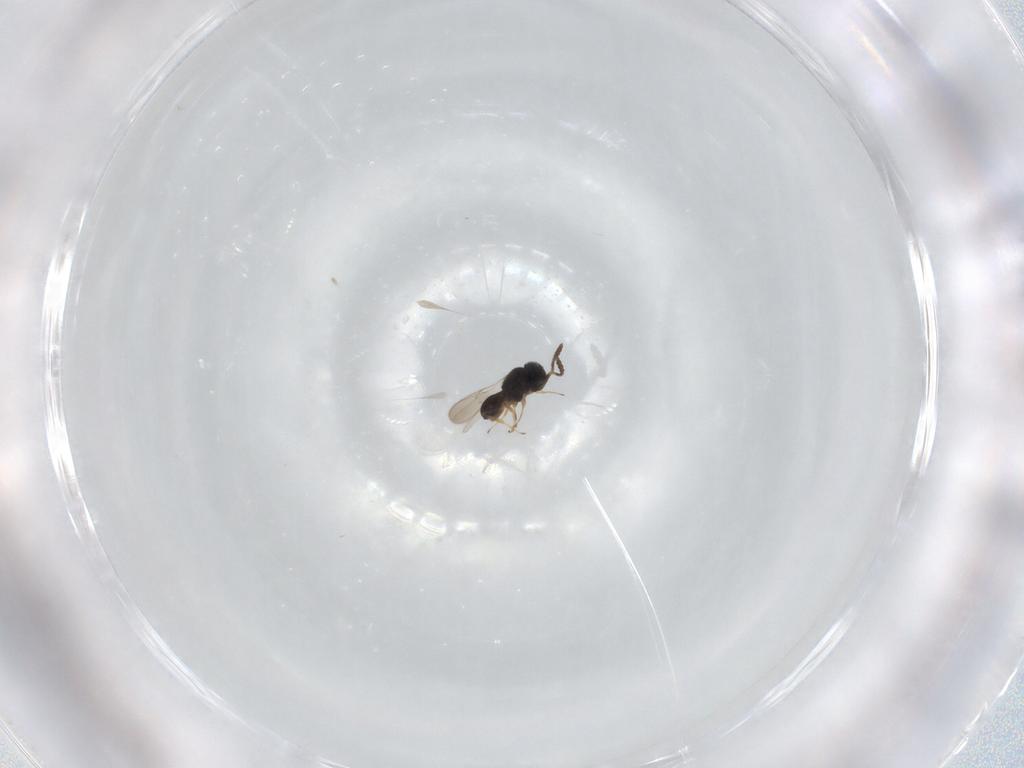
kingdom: Animalia
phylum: Arthropoda
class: Insecta
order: Hymenoptera
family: Scelionidae
